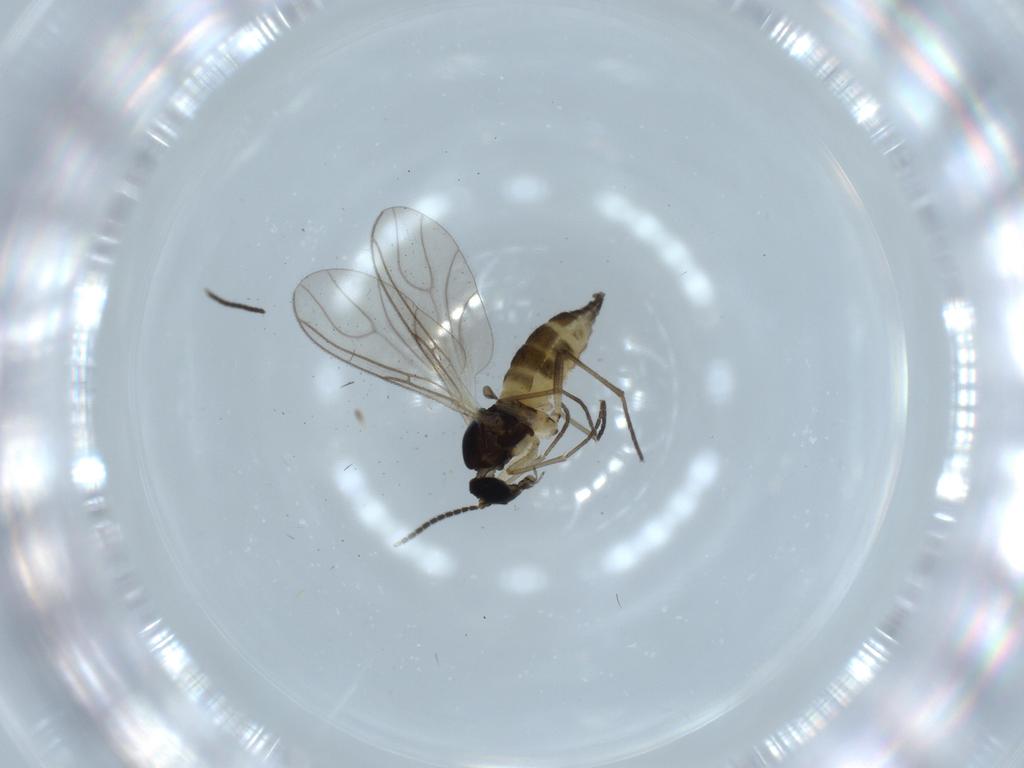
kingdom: Animalia
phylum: Arthropoda
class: Insecta
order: Diptera
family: Sciaridae
